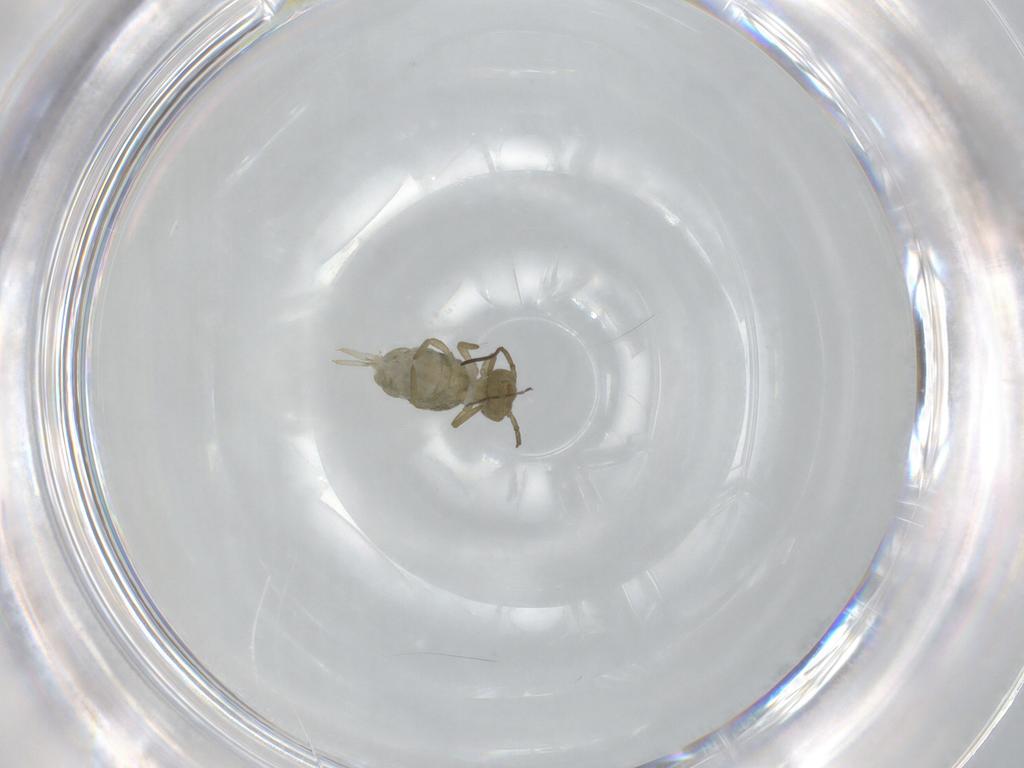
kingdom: Animalia
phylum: Arthropoda
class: Collembola
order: Symphypleona
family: Sminthuridae
